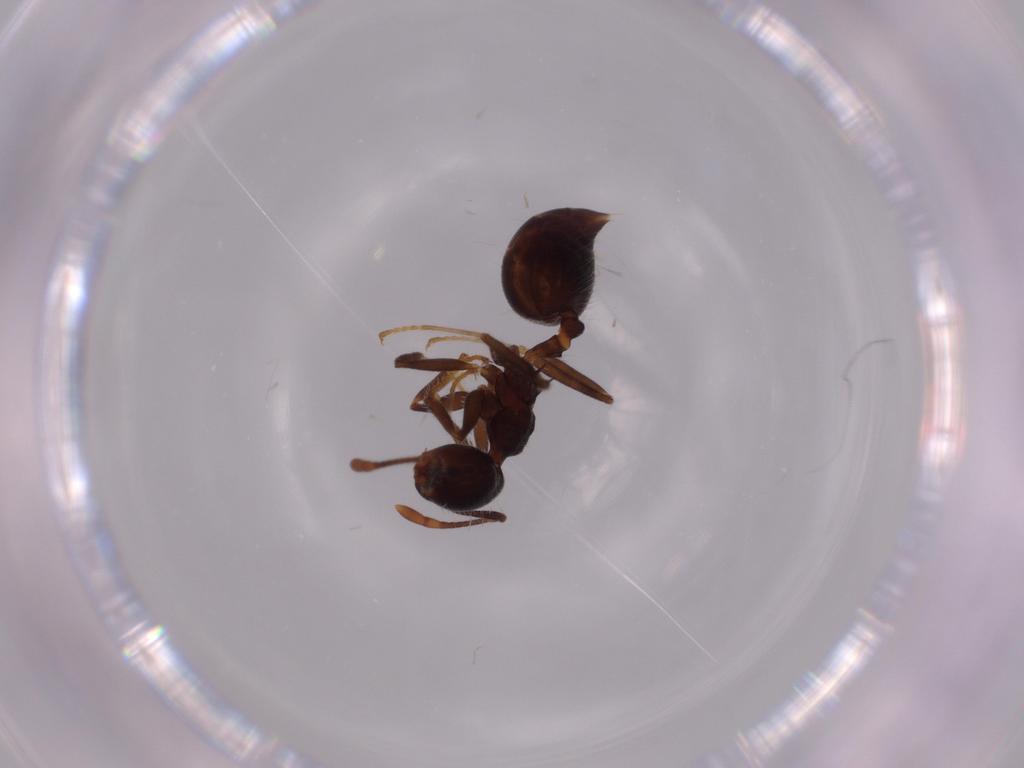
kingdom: Animalia
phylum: Arthropoda
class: Insecta
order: Hymenoptera
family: Formicidae
